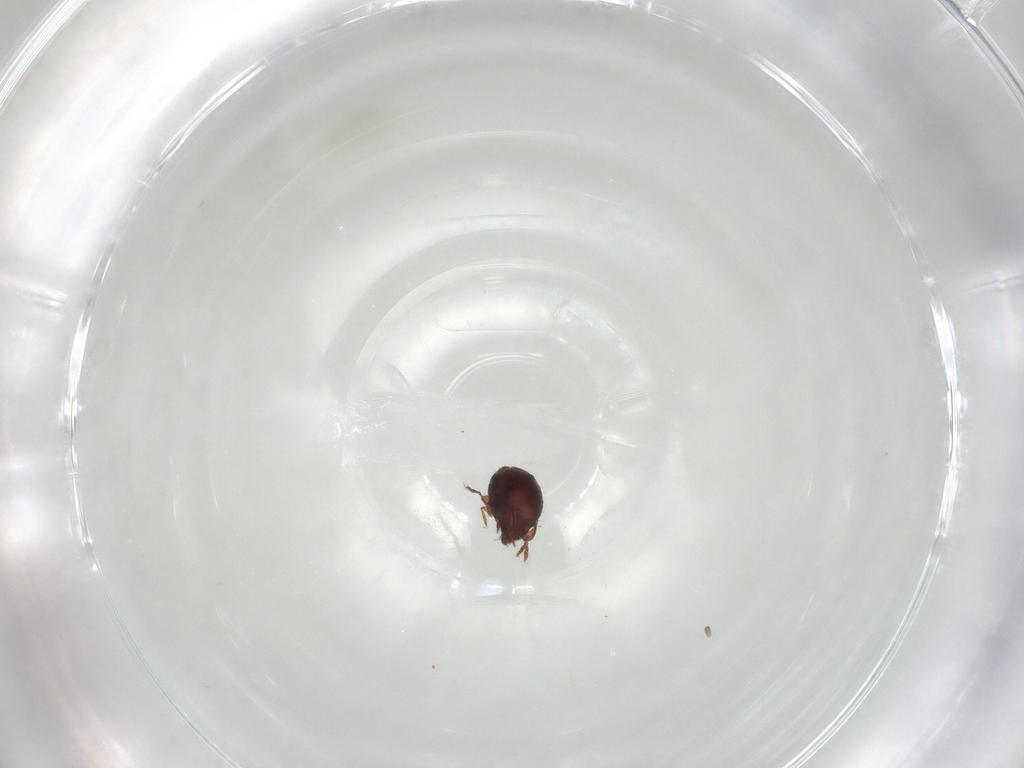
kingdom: Animalia
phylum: Arthropoda
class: Arachnida
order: Sarcoptiformes
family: Humerobatidae
